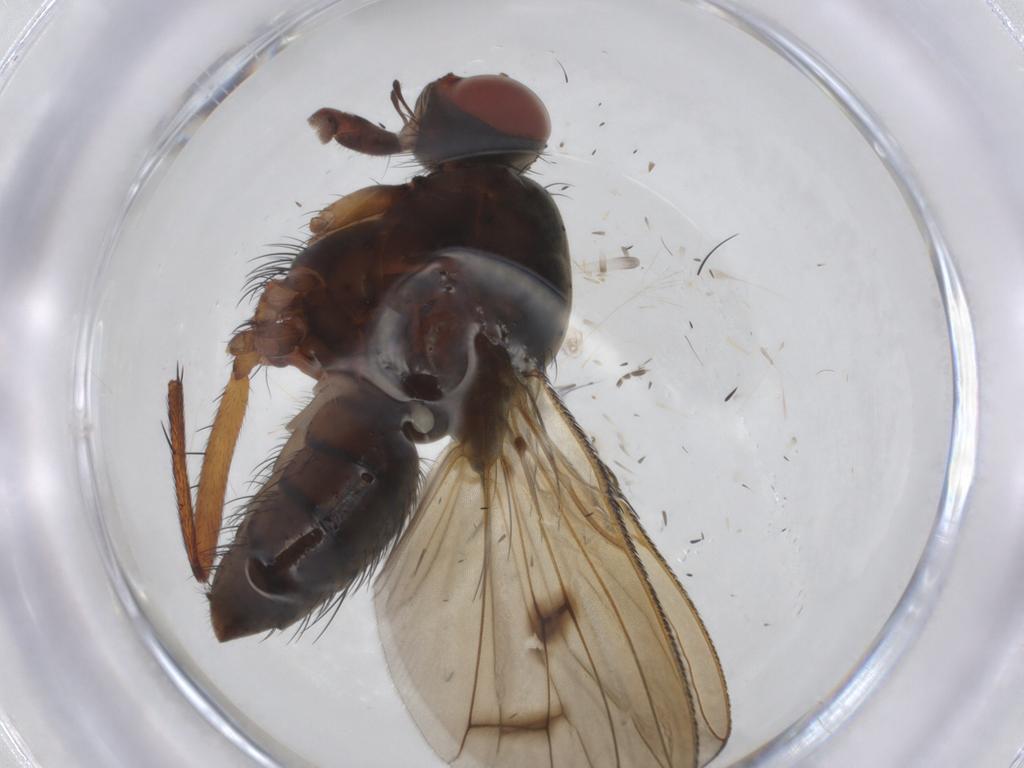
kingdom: Animalia
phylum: Arthropoda
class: Insecta
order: Diptera
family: Anthomyiidae
